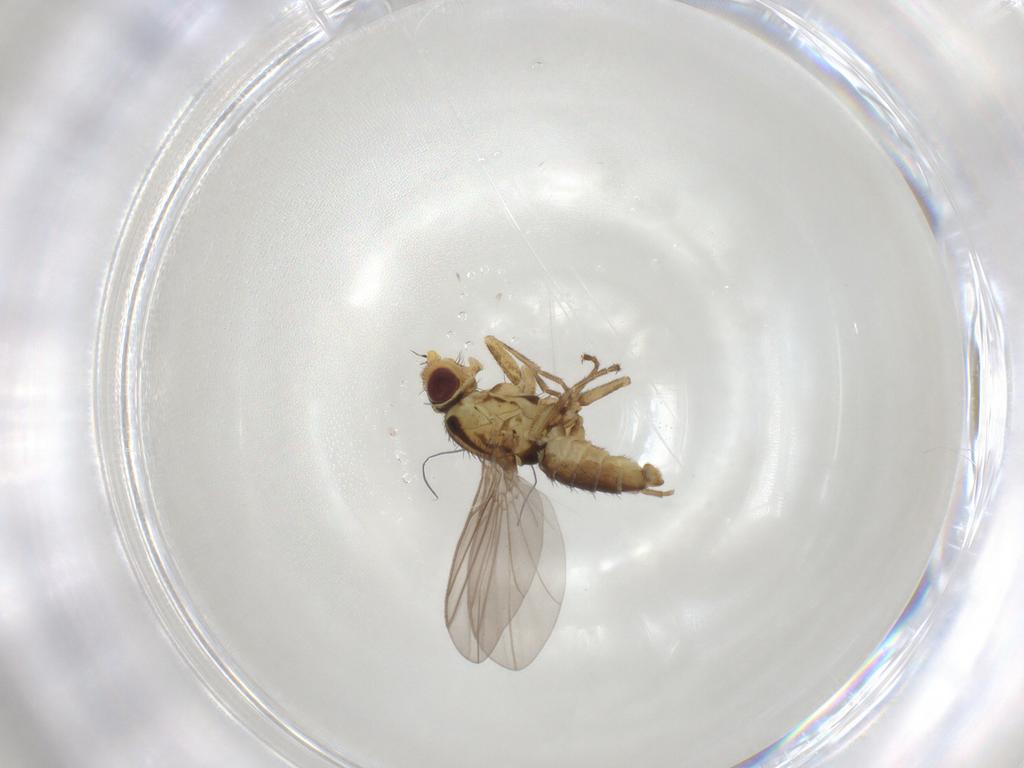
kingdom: Animalia
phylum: Arthropoda
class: Insecta
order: Diptera
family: Agromyzidae
